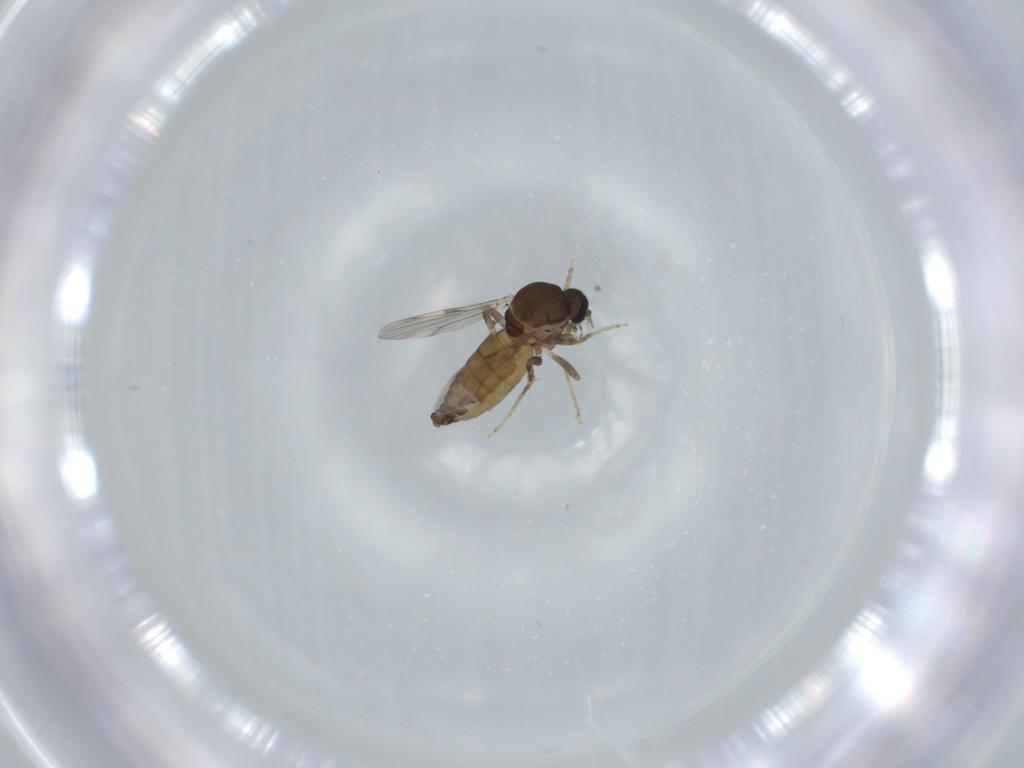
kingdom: Animalia
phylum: Arthropoda
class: Insecta
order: Diptera
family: Ceratopogonidae
